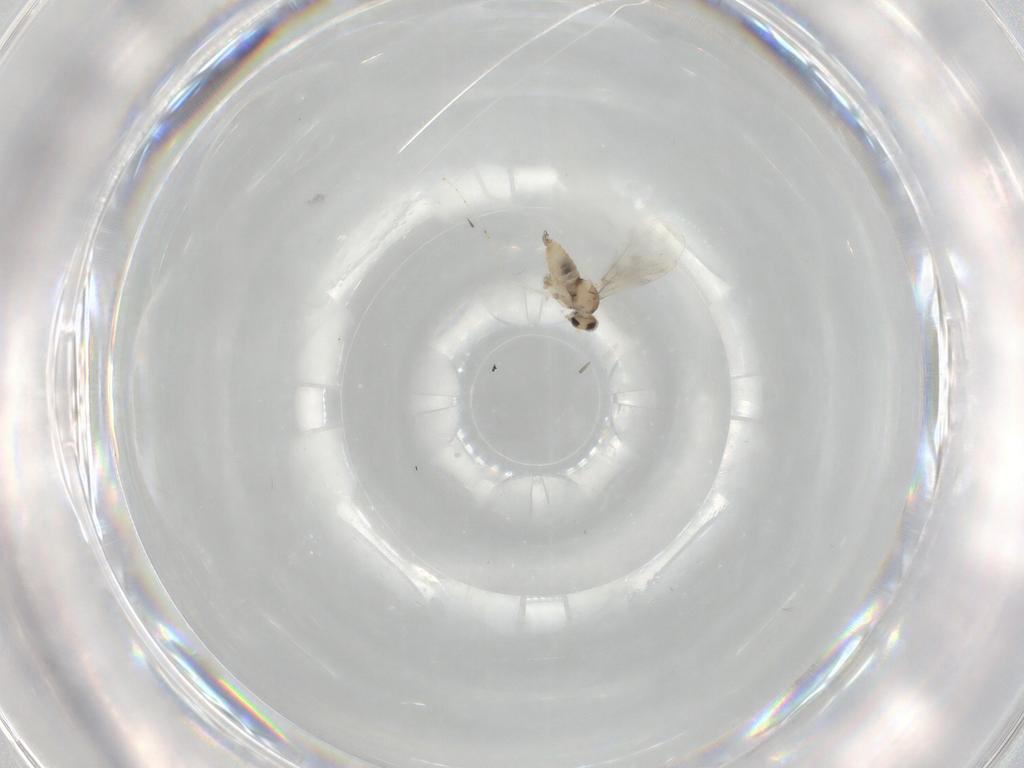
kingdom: Animalia
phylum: Arthropoda
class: Insecta
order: Diptera
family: Cecidomyiidae
